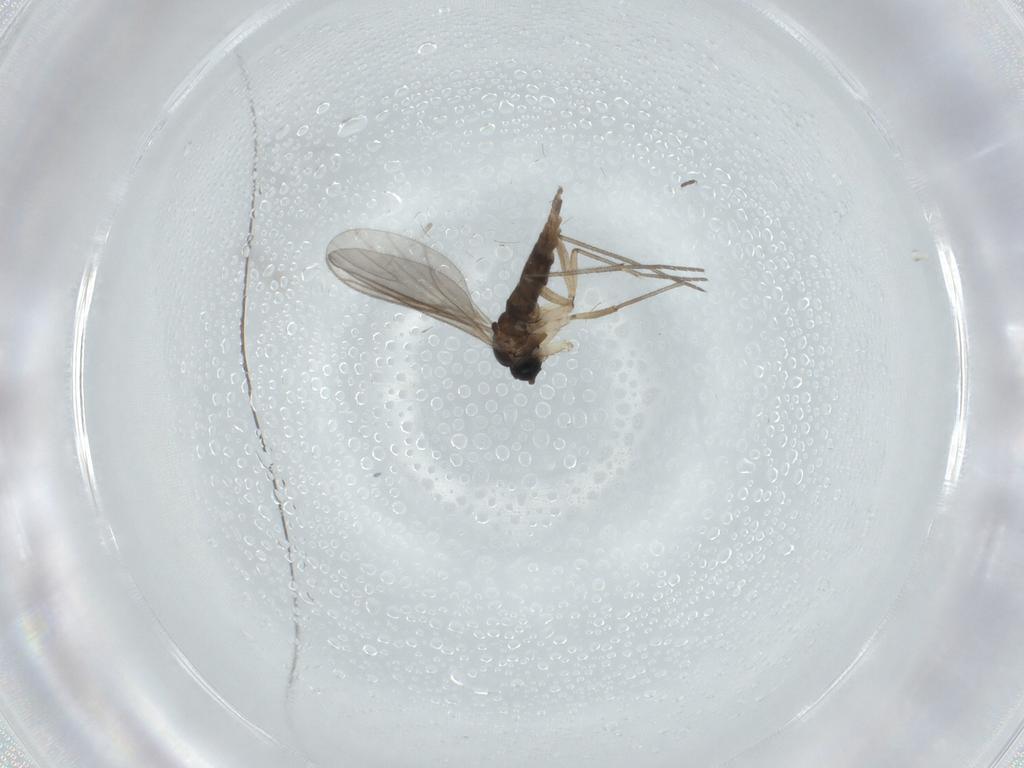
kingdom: Animalia
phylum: Arthropoda
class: Insecta
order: Diptera
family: Sciaridae
